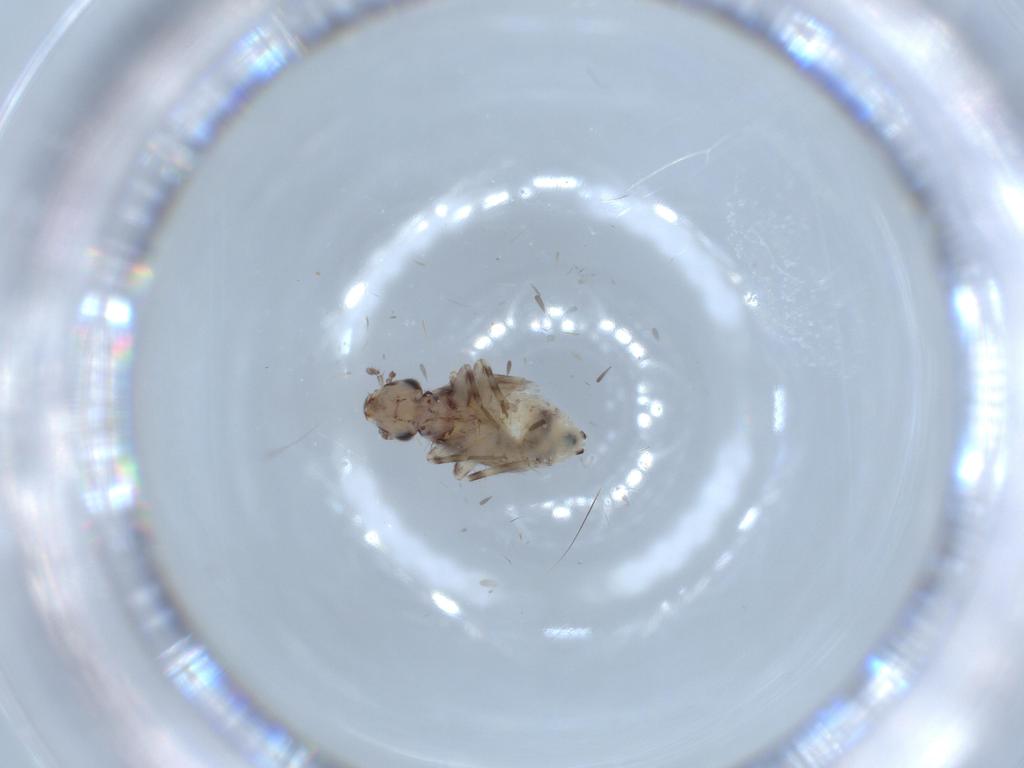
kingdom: Animalia
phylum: Arthropoda
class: Insecta
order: Psocodea
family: Lepidopsocidae
